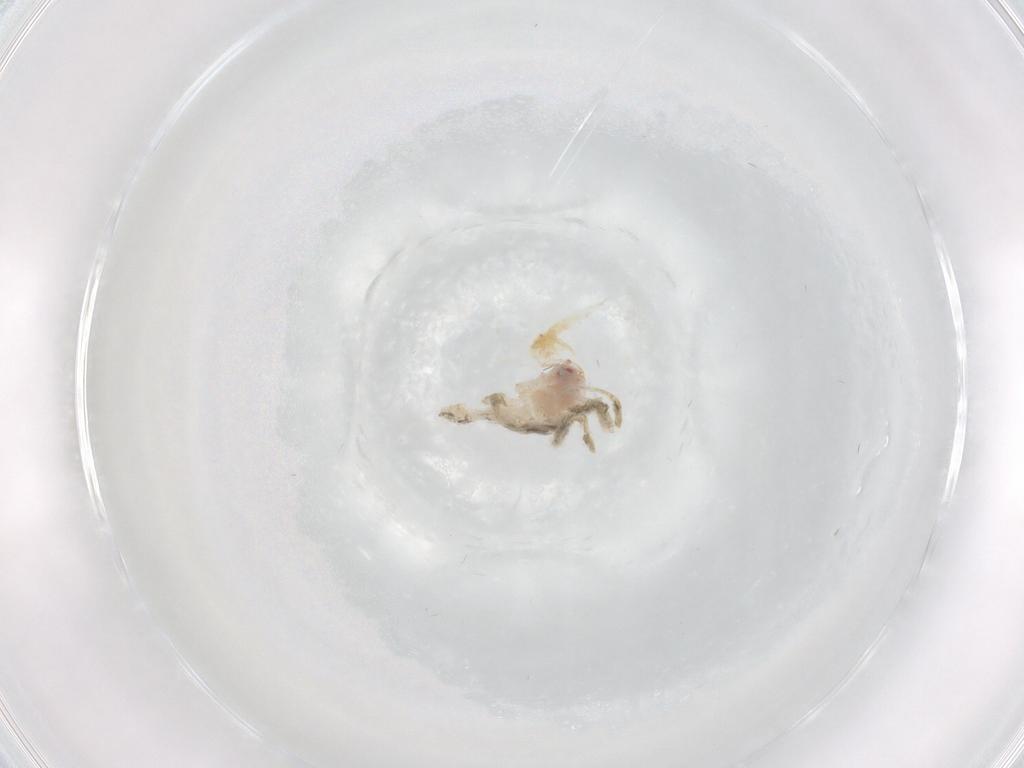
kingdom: Animalia
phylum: Arthropoda
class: Insecta
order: Hemiptera
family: Aleyrodidae
